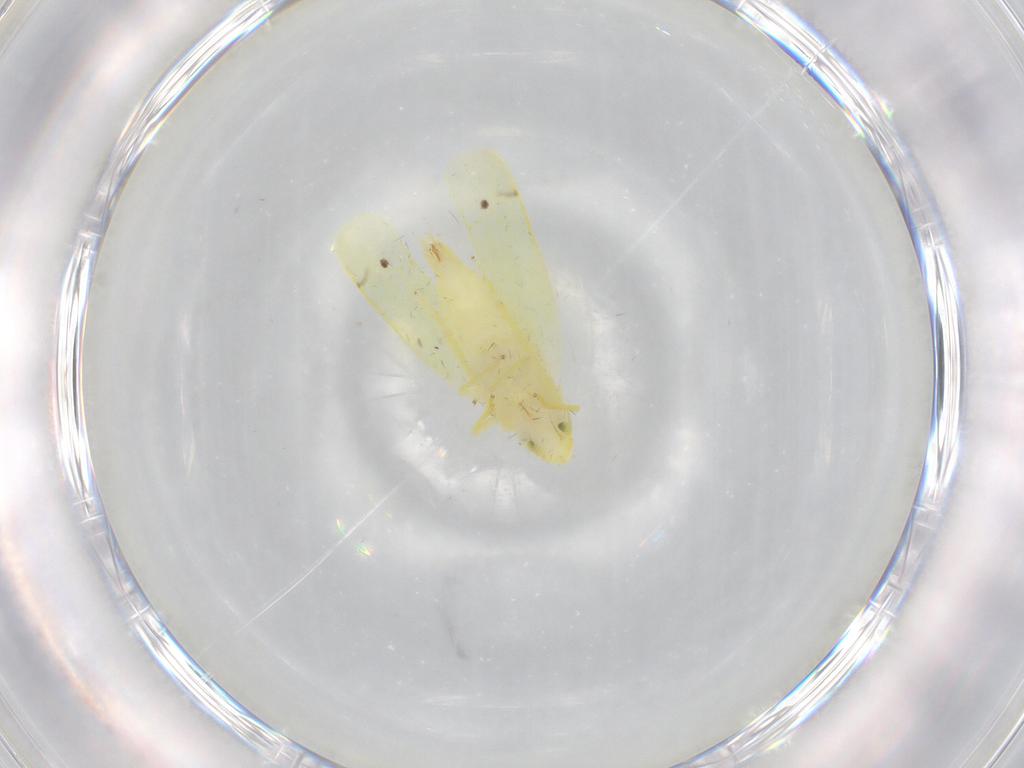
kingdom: Animalia
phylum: Arthropoda
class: Insecta
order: Hemiptera
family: Cicadellidae
